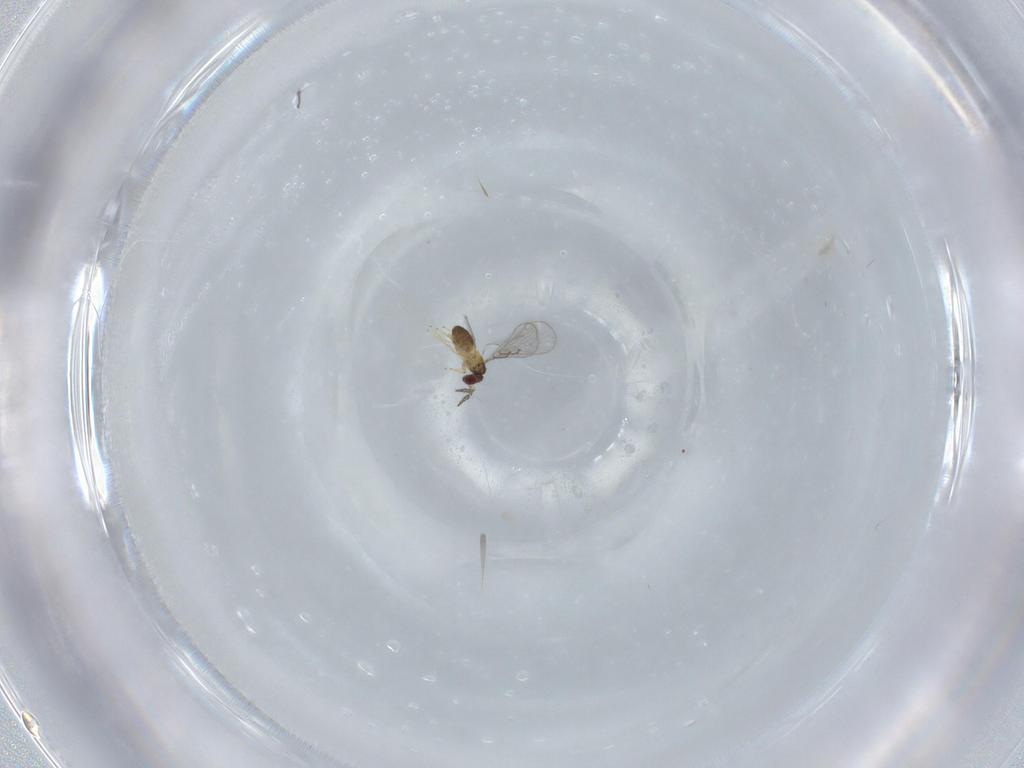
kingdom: Animalia
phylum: Arthropoda
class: Insecta
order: Hymenoptera
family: Trichogrammatidae
